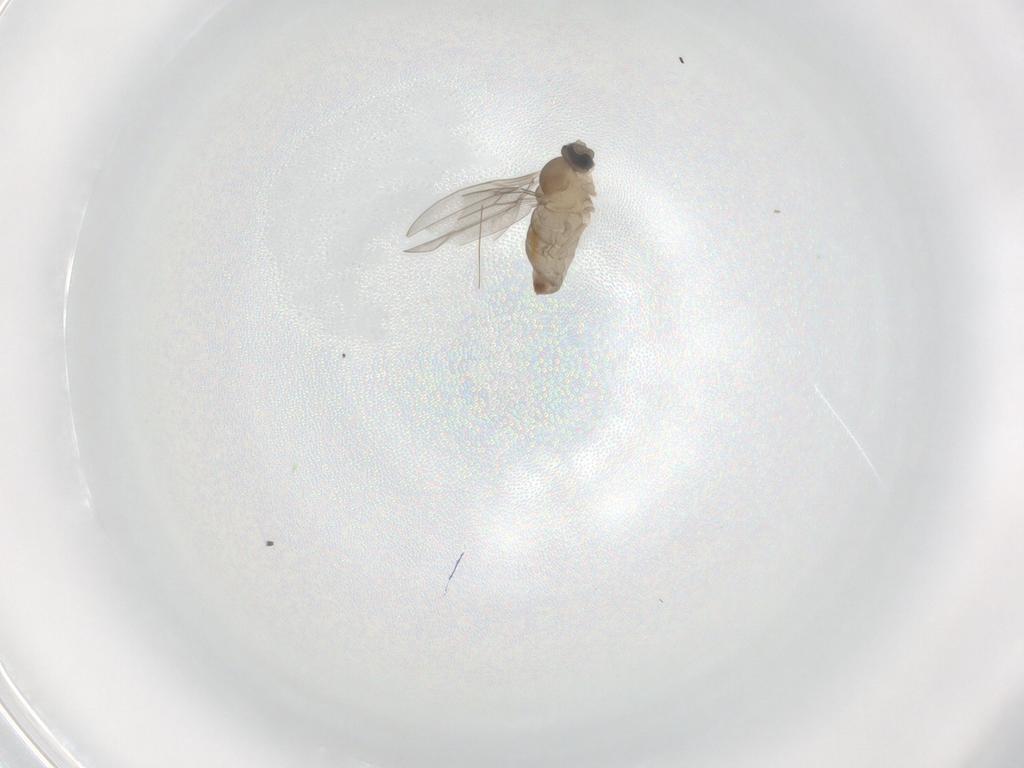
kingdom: Animalia
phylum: Arthropoda
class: Insecta
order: Diptera
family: Cecidomyiidae
